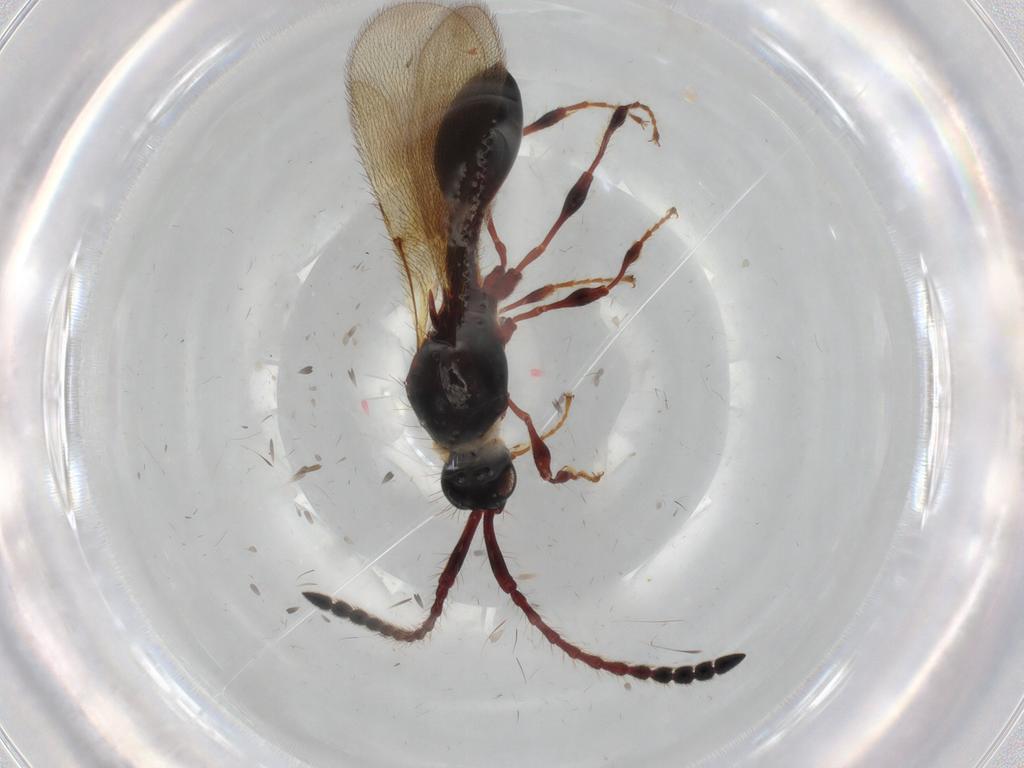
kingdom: Animalia
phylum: Arthropoda
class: Insecta
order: Hymenoptera
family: Diapriidae
